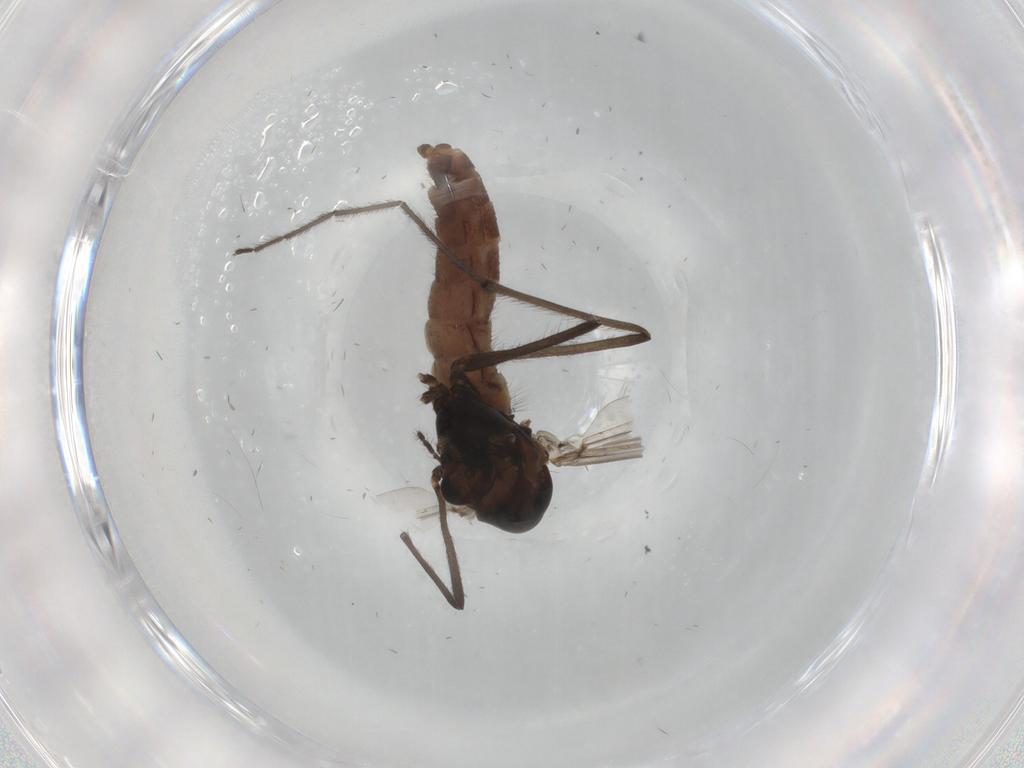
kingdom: Animalia
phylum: Arthropoda
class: Insecta
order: Diptera
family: Chironomidae
